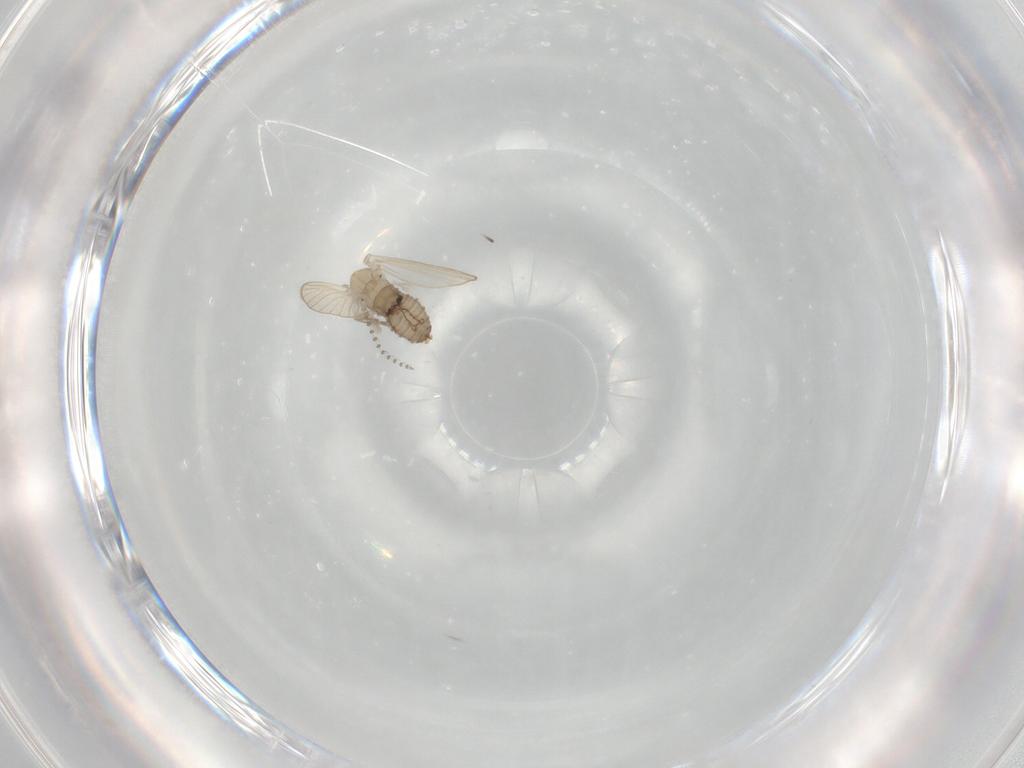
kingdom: Animalia
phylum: Arthropoda
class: Insecta
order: Diptera
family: Psychodidae
